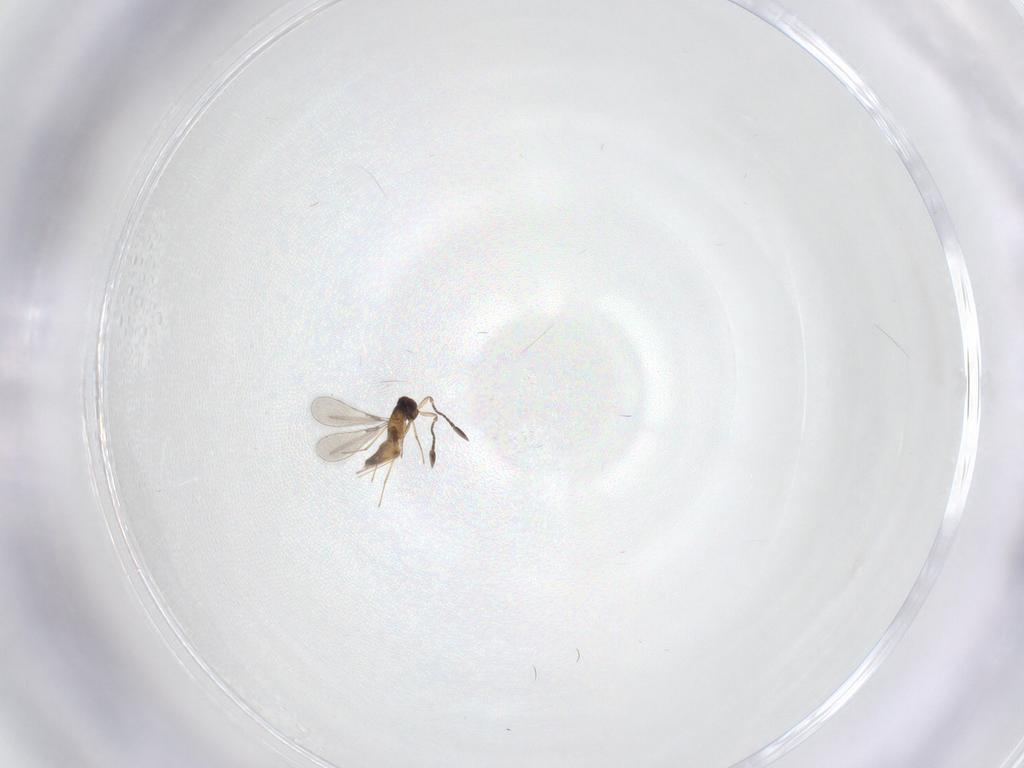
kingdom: Animalia
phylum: Arthropoda
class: Insecta
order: Hymenoptera
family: Mymaridae
